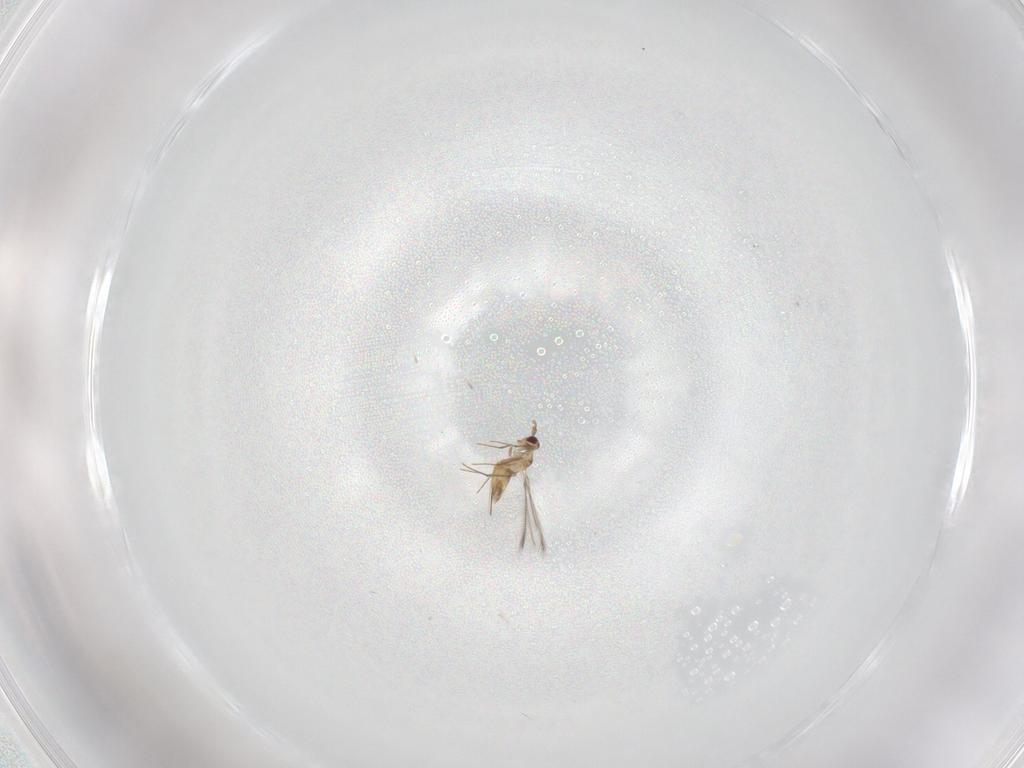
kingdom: Animalia
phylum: Arthropoda
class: Insecta
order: Hymenoptera
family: Mymaridae
